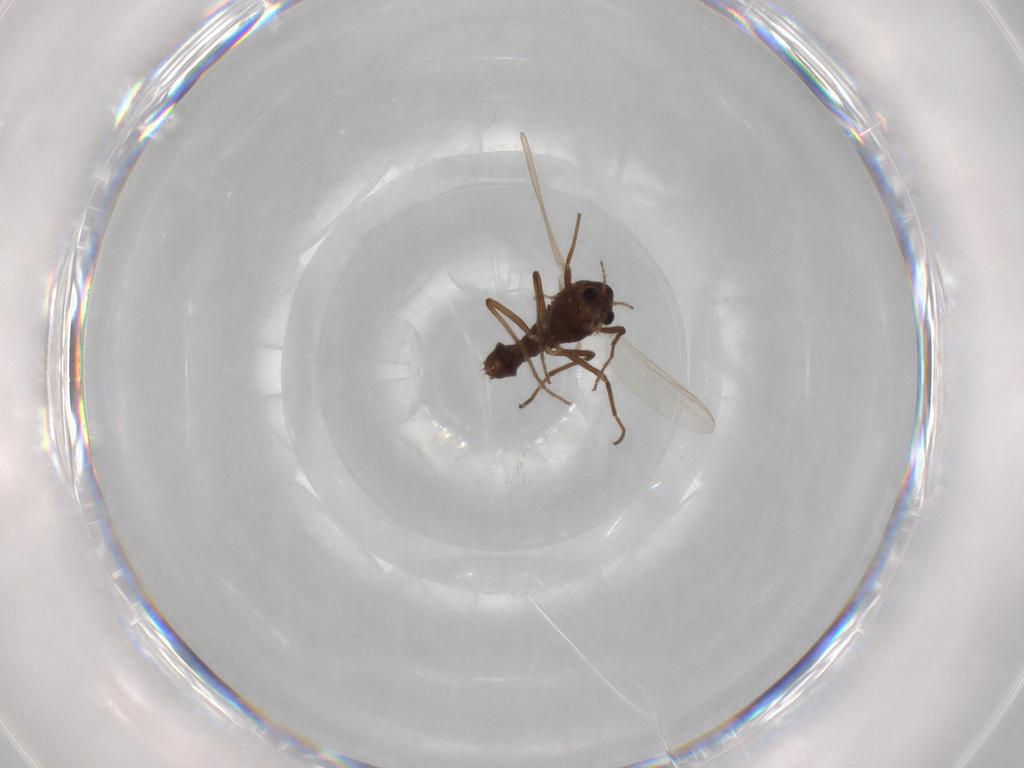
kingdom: Animalia
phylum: Arthropoda
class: Insecta
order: Diptera
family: Chironomidae
